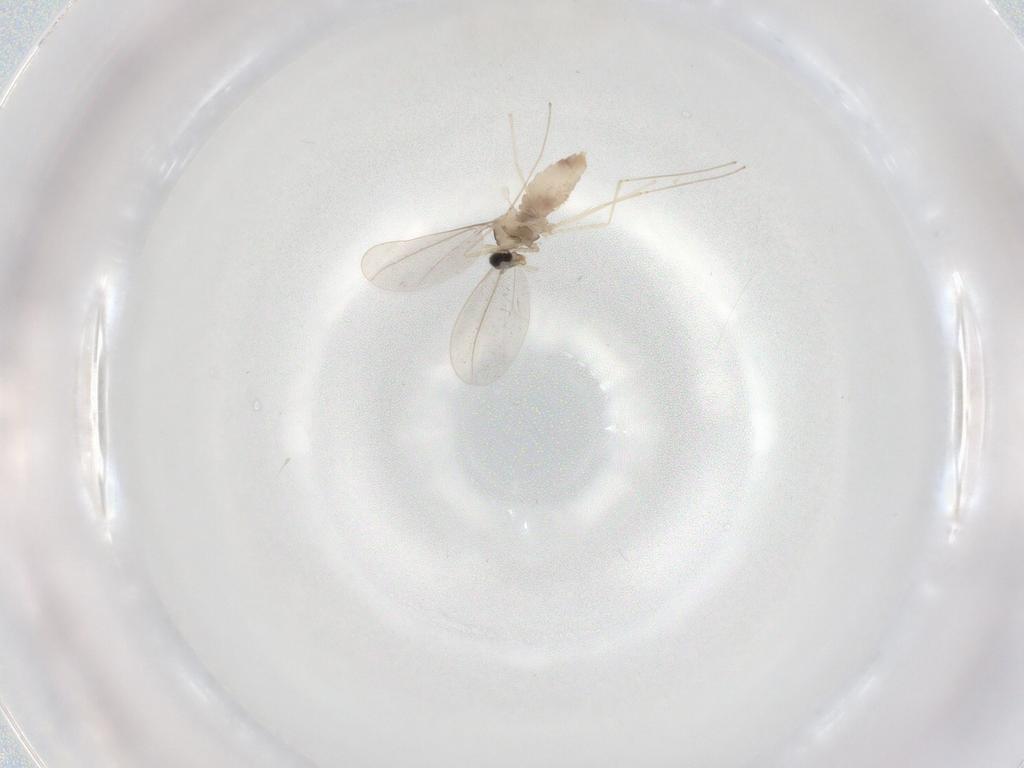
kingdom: Animalia
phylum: Arthropoda
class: Insecta
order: Diptera
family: Cecidomyiidae
